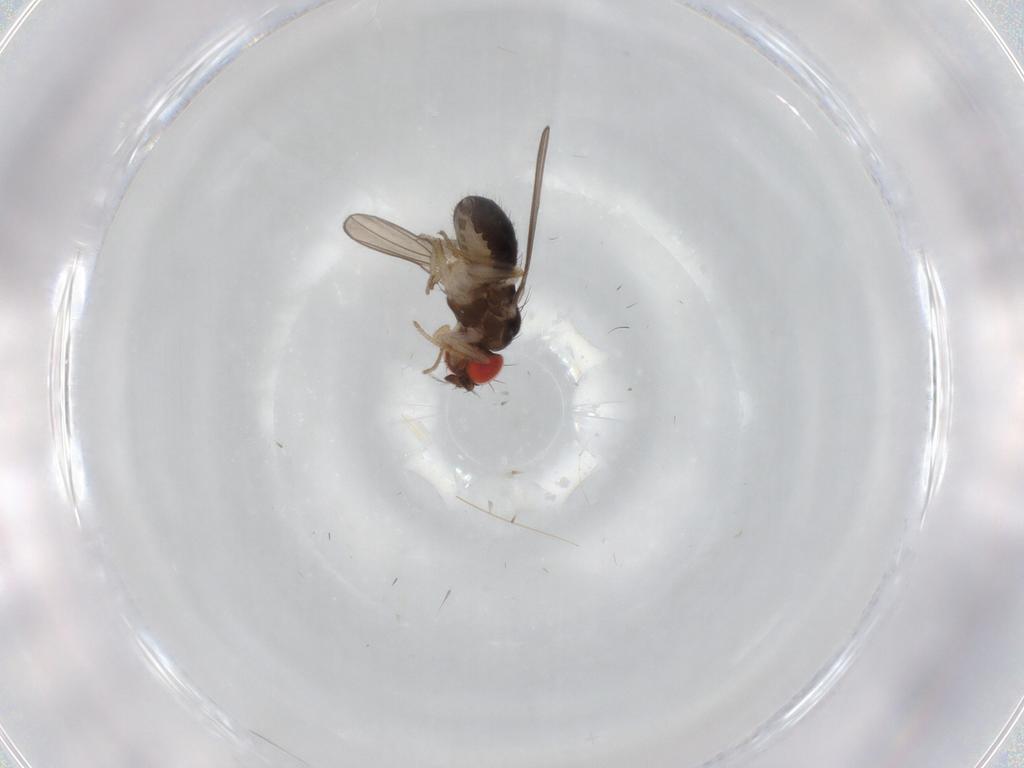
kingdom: Animalia
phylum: Arthropoda
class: Insecta
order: Diptera
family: Drosophilidae
